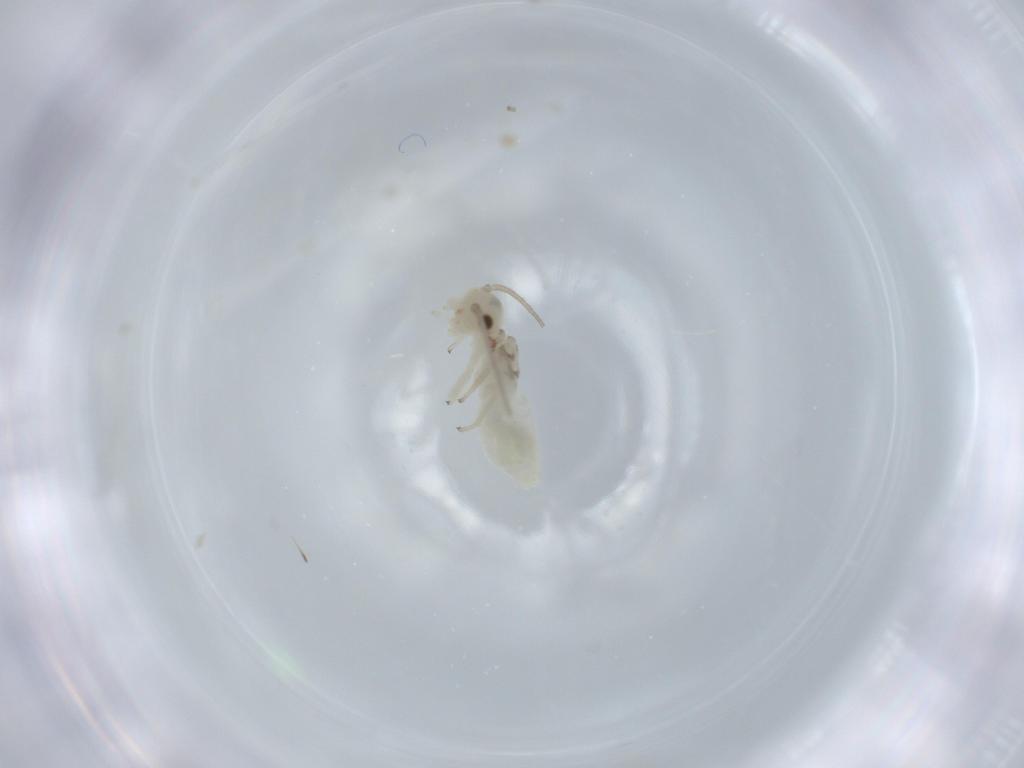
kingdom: Animalia
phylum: Arthropoda
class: Insecta
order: Psocodea
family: Caeciliusidae
